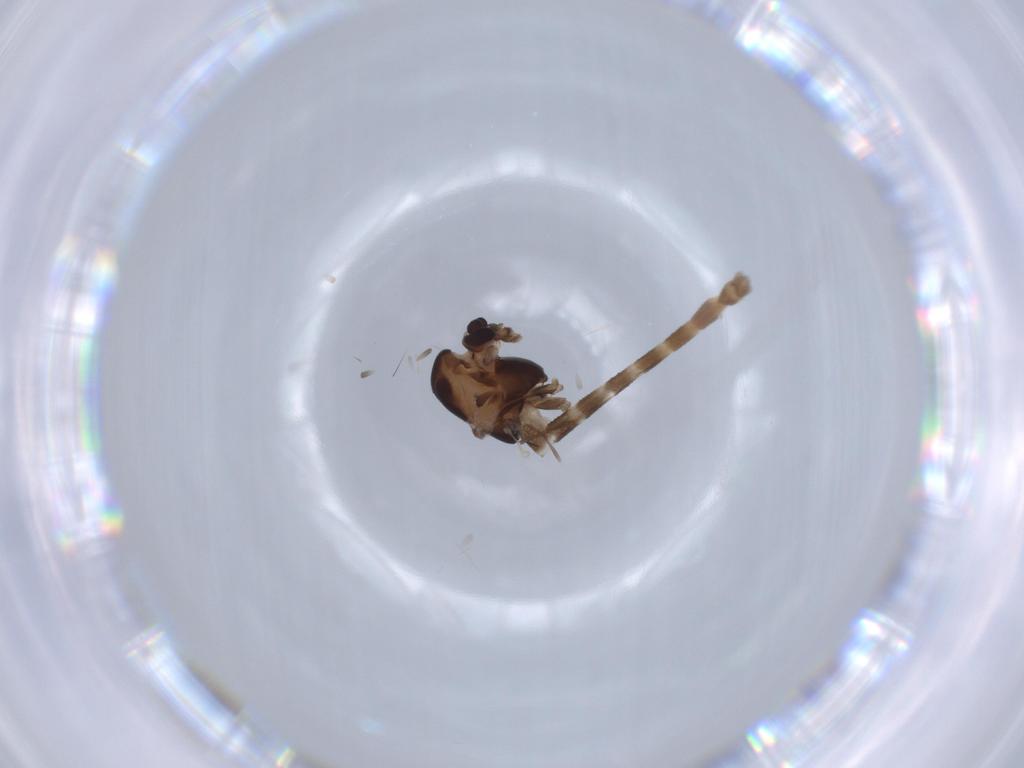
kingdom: Animalia
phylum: Arthropoda
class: Insecta
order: Diptera
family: Chironomidae
